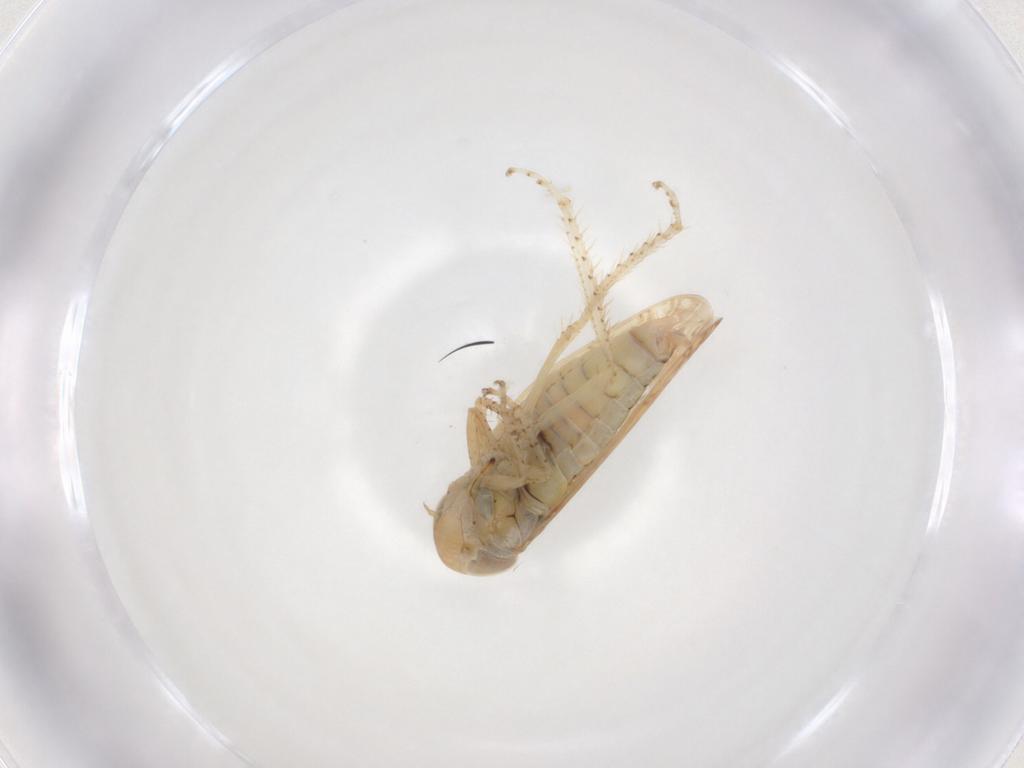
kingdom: Animalia
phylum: Arthropoda
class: Insecta
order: Hemiptera
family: Cicadellidae
